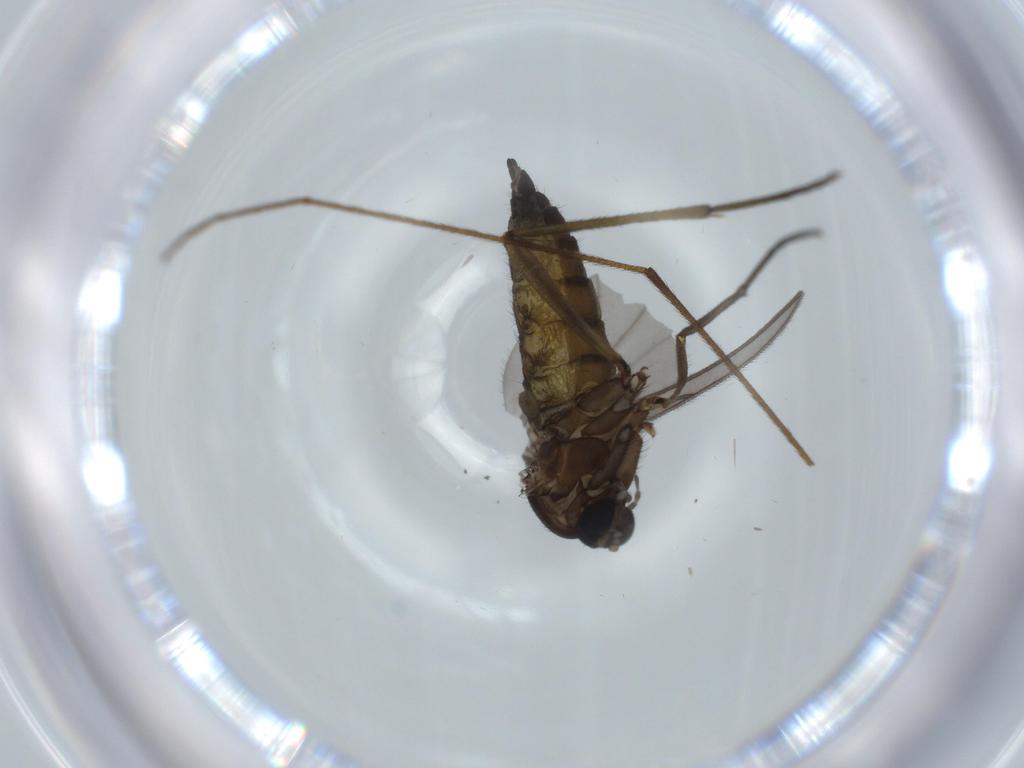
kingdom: Animalia
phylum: Arthropoda
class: Insecta
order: Diptera
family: Sciaridae
